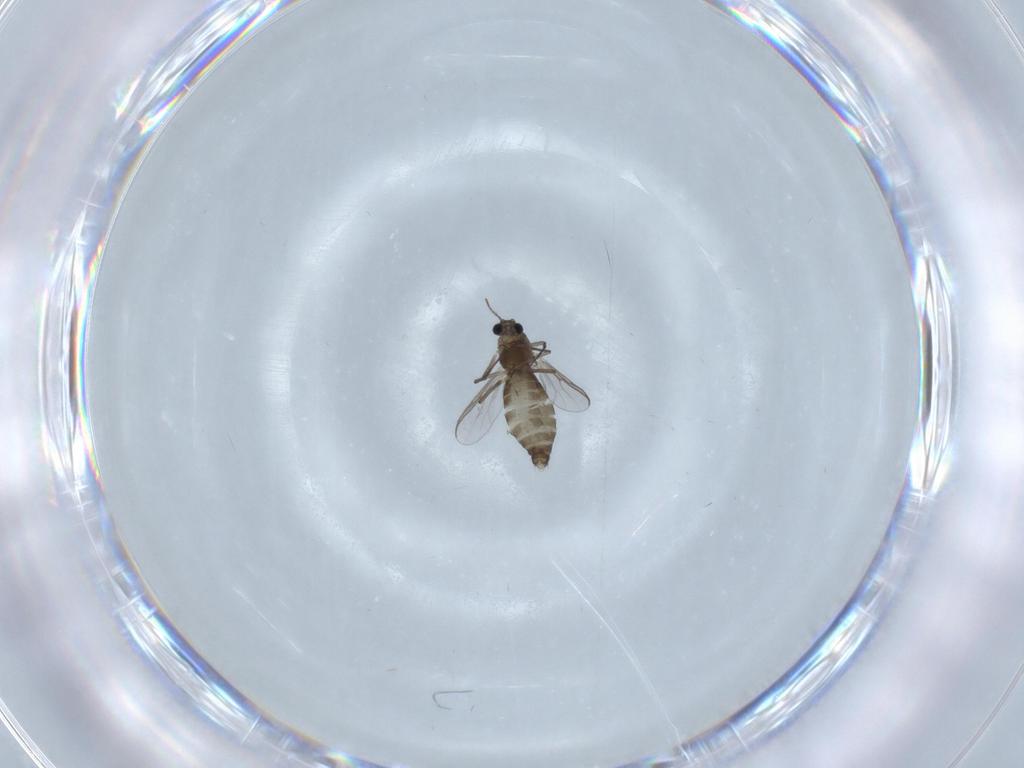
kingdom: Animalia
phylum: Arthropoda
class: Insecta
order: Diptera
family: Chironomidae
